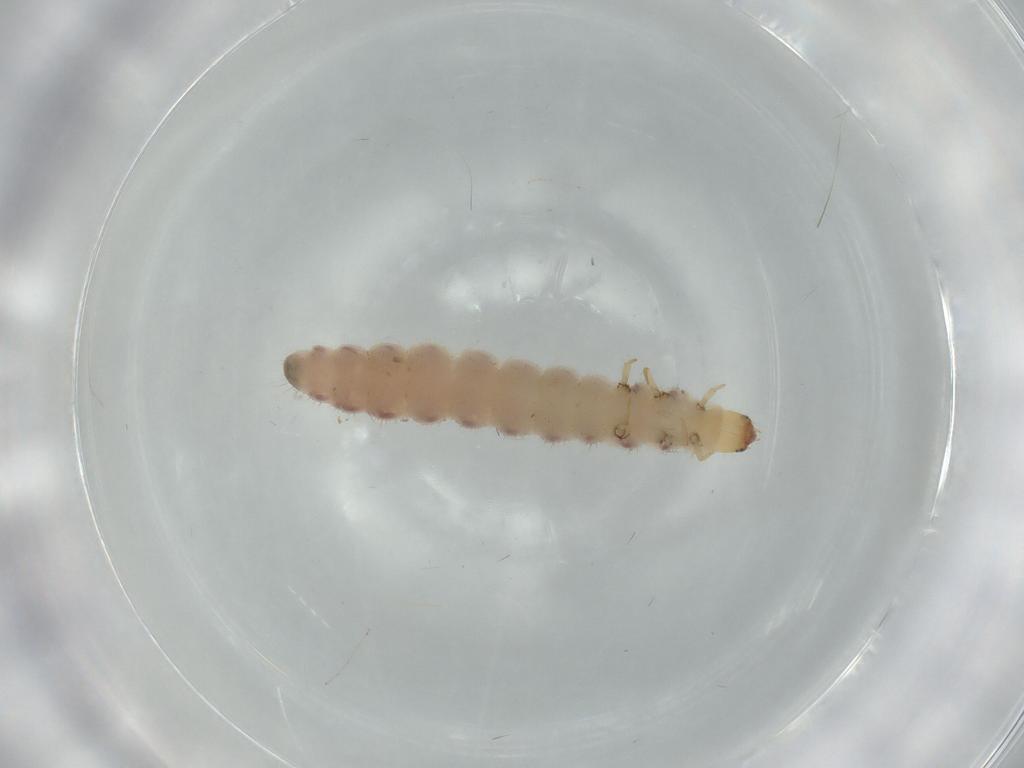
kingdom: Animalia
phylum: Arthropoda
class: Insecta
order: Coleoptera
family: Cleridae
